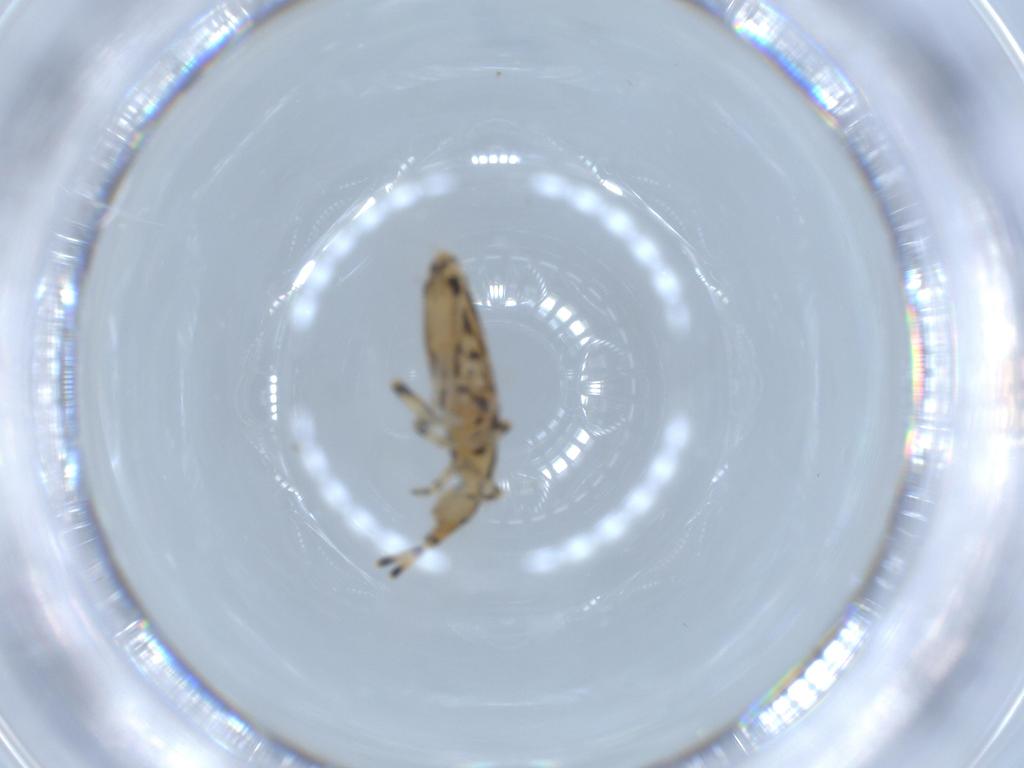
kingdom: Animalia
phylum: Arthropoda
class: Collembola
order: Entomobryomorpha
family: Entomobryidae
